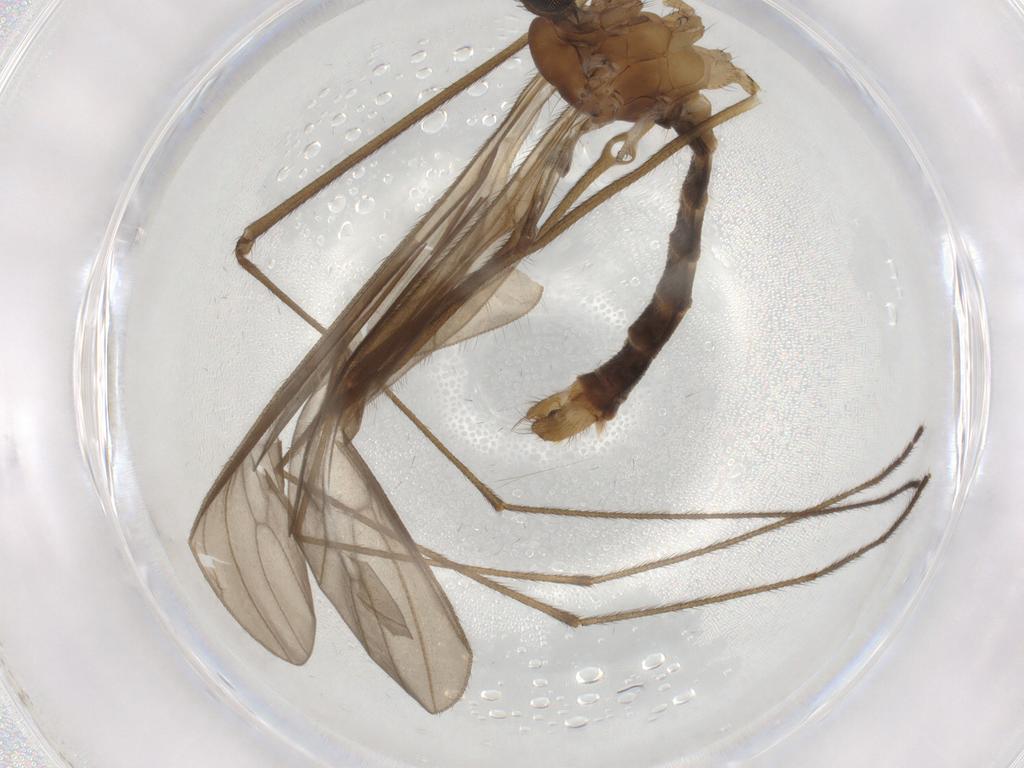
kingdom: Animalia
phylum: Arthropoda
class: Insecta
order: Diptera
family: Phoridae
